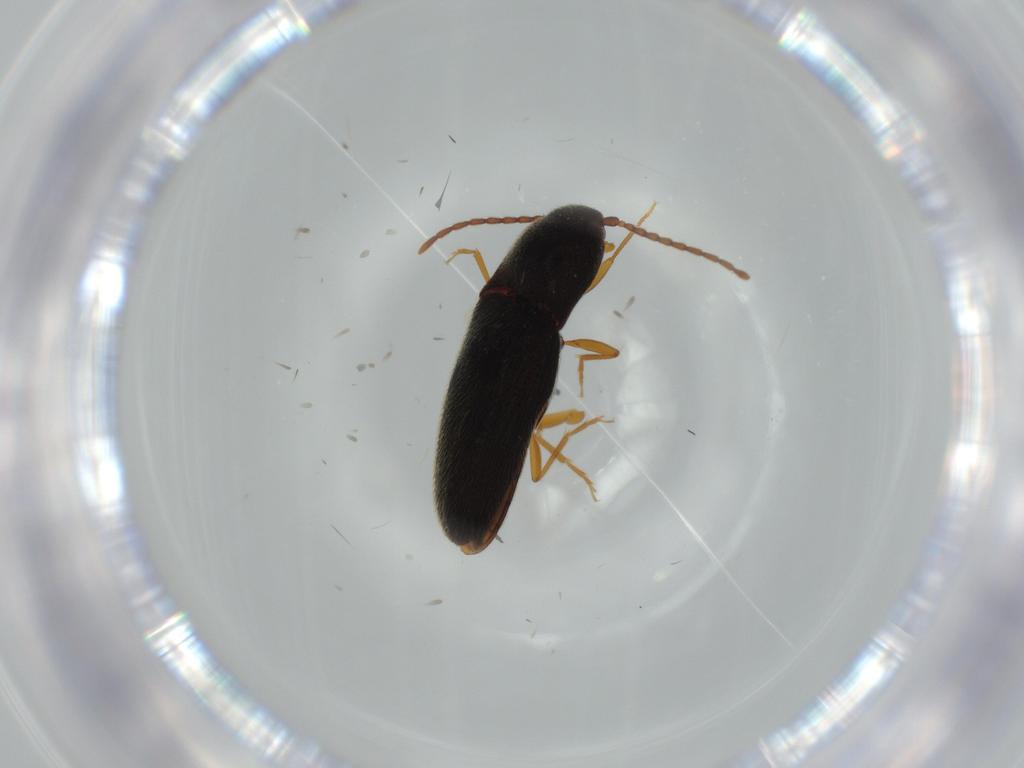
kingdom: Animalia
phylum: Arthropoda
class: Insecta
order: Coleoptera
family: Elateridae
